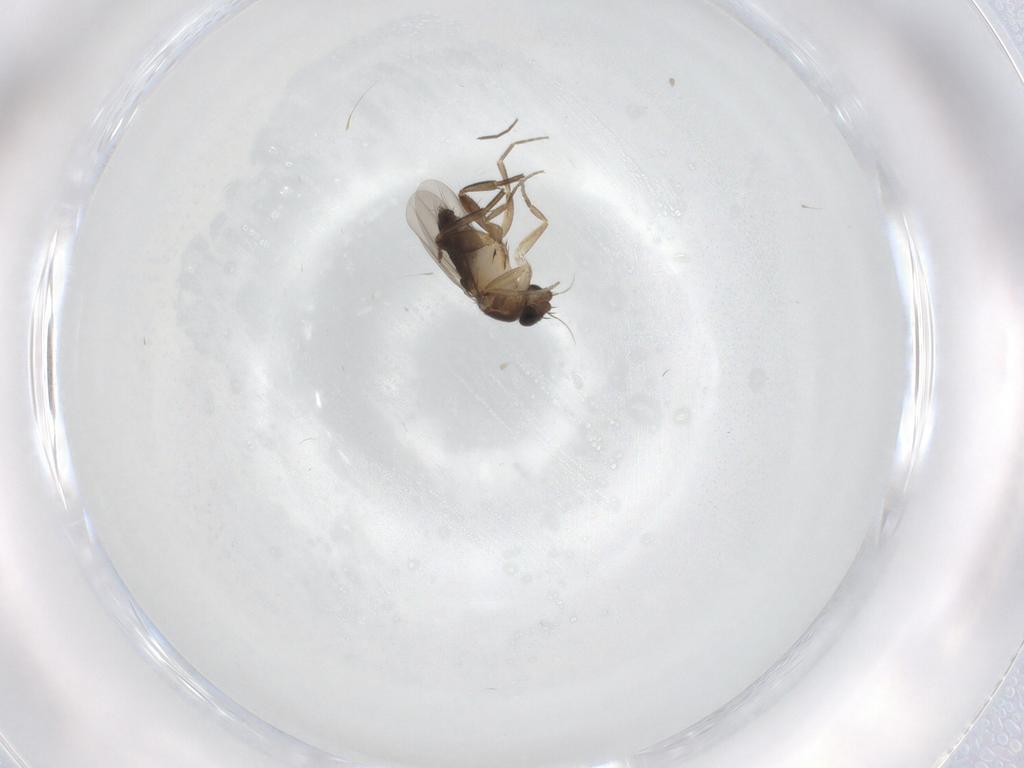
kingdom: Animalia
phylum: Arthropoda
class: Insecta
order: Diptera
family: Phoridae
